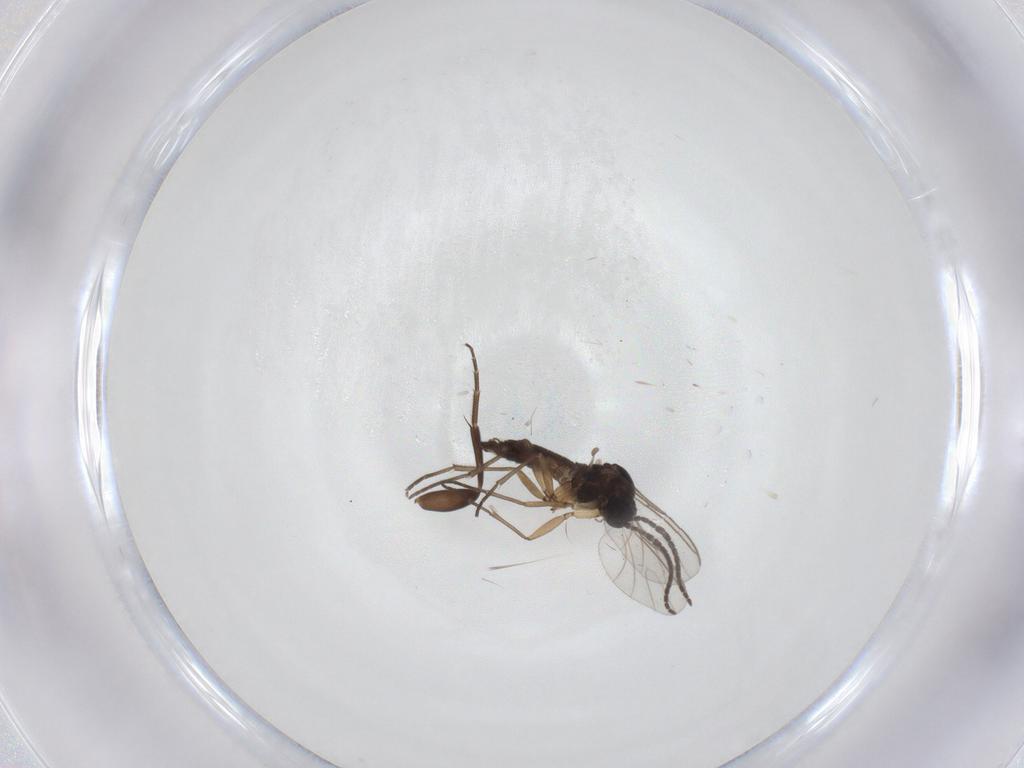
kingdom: Animalia
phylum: Arthropoda
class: Insecta
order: Diptera
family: Sciaridae
